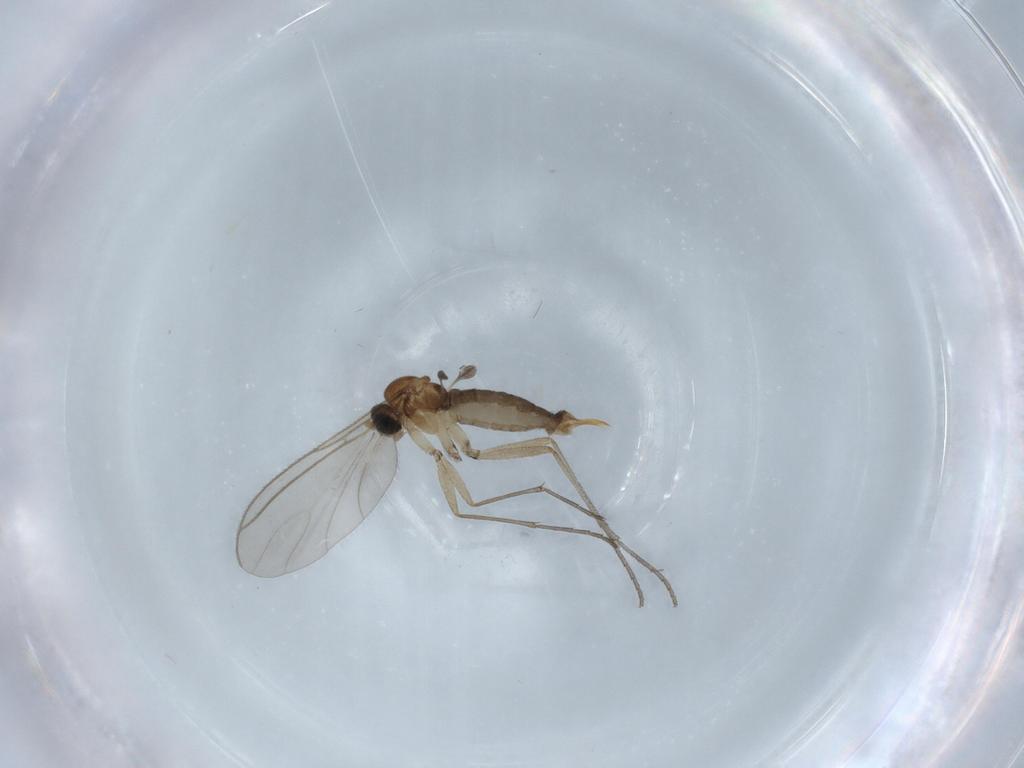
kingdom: Animalia
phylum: Arthropoda
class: Insecta
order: Diptera
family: Sciaridae
